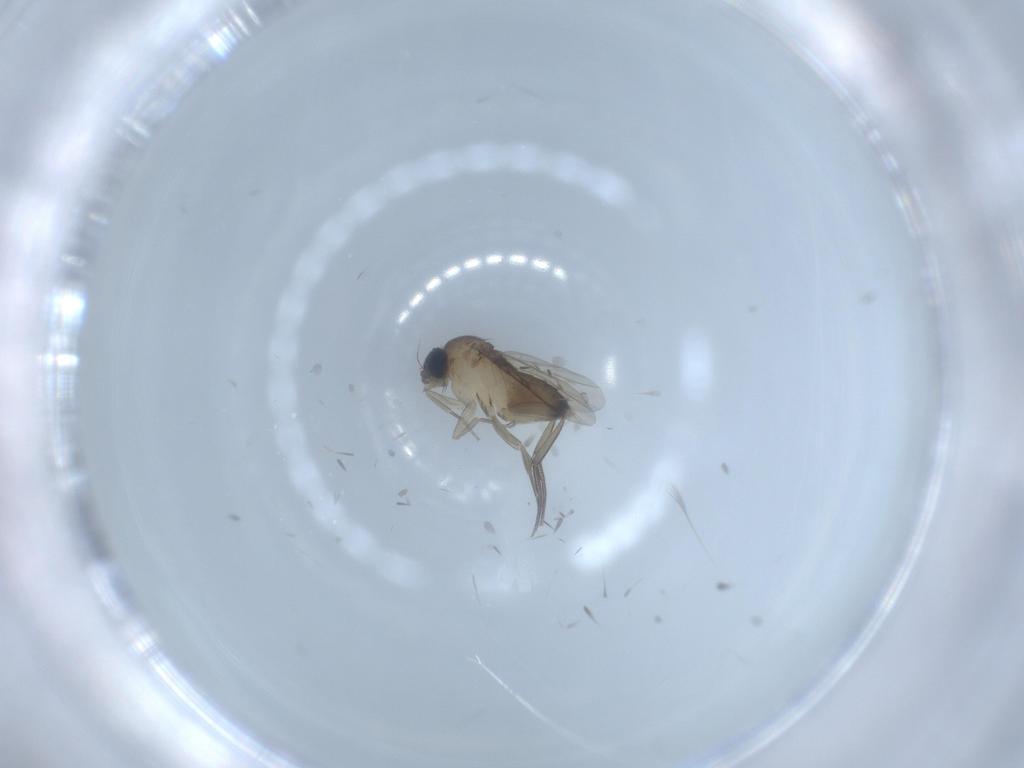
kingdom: Animalia
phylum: Arthropoda
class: Insecta
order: Diptera
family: Phoridae
